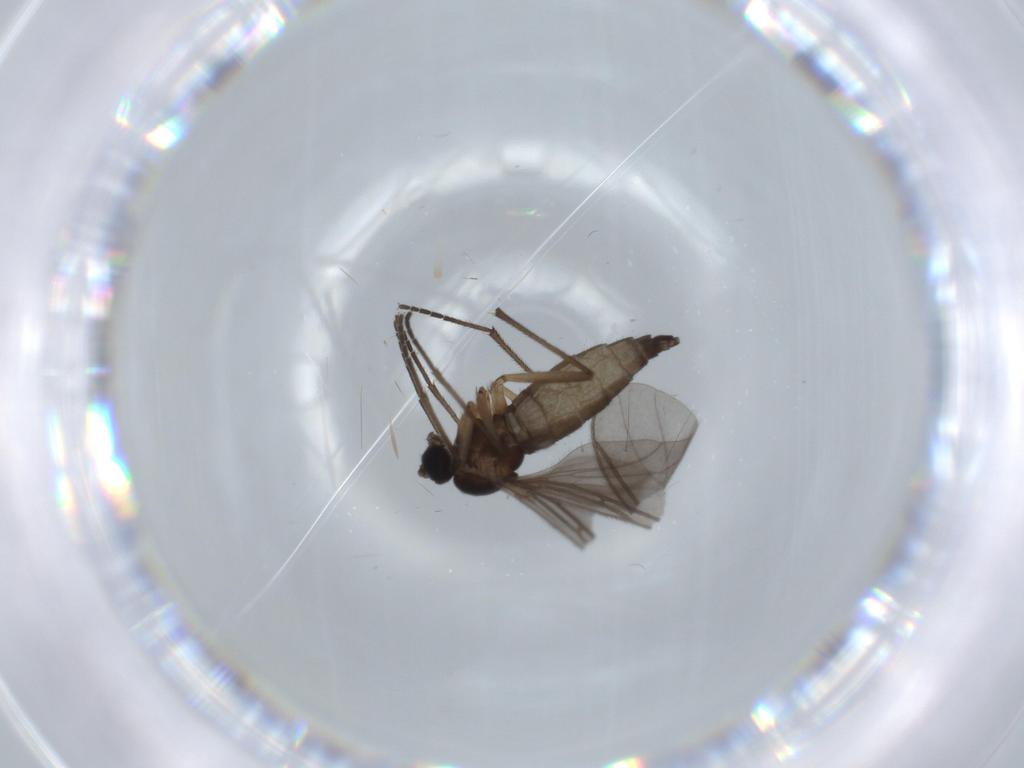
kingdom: Animalia
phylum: Arthropoda
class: Insecta
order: Diptera
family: Sciaridae
